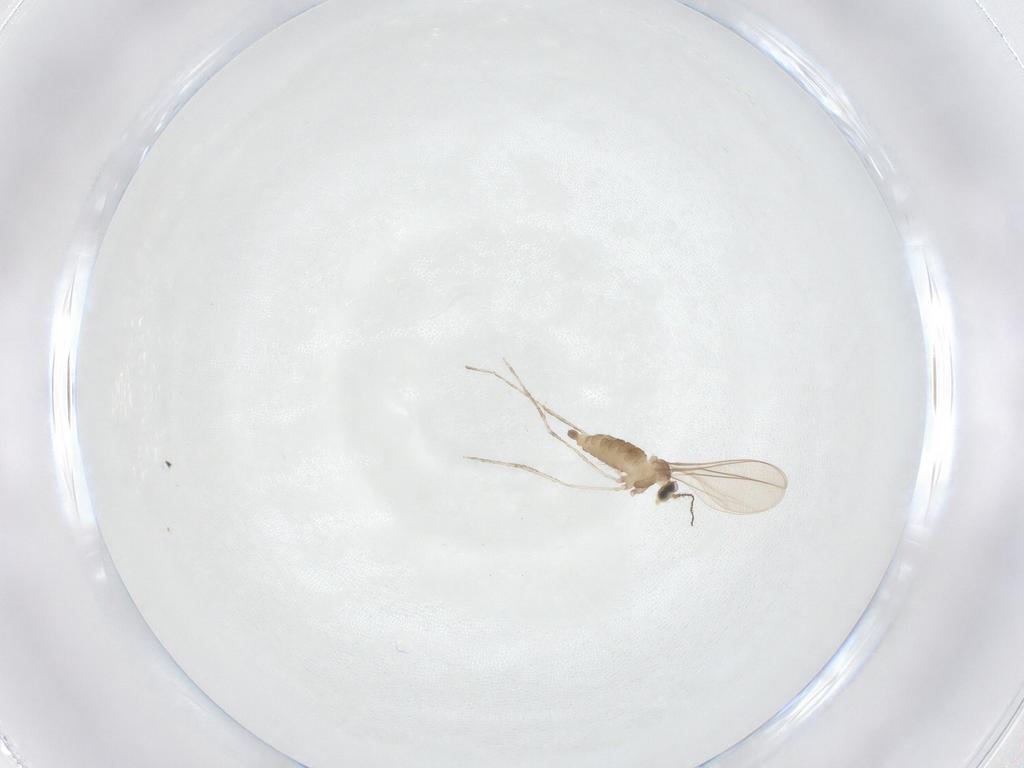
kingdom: Animalia
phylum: Arthropoda
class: Insecta
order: Diptera
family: Cecidomyiidae
